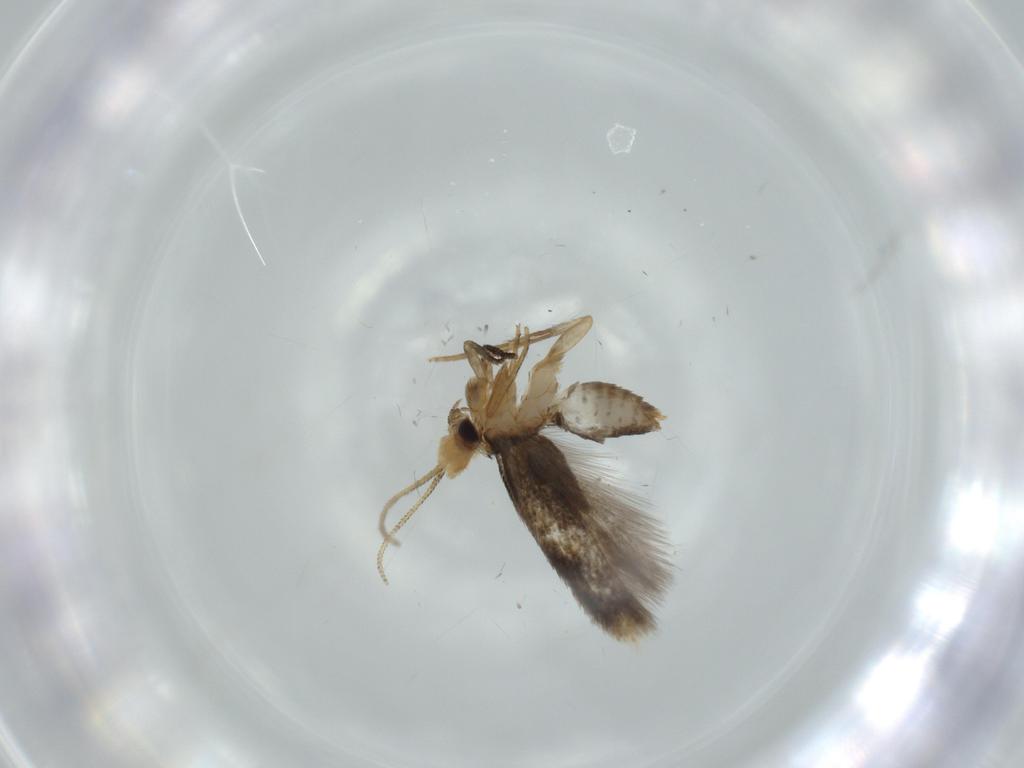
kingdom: Animalia
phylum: Arthropoda
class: Insecta
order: Lepidoptera
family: Nepticulidae
